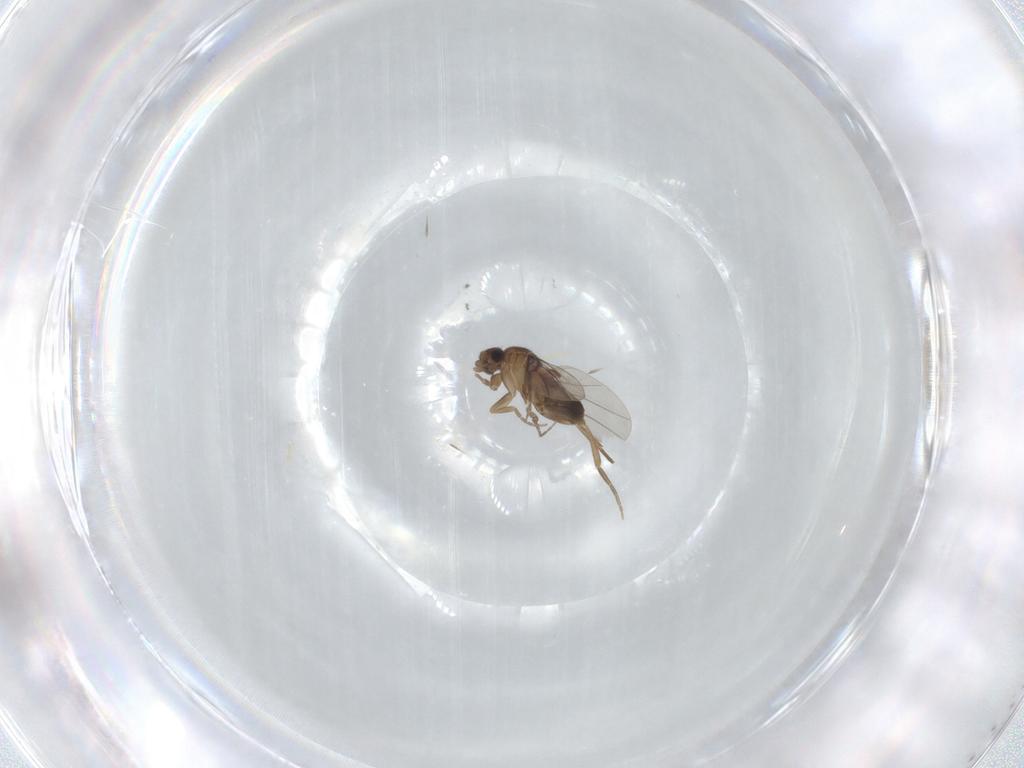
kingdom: Animalia
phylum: Arthropoda
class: Insecta
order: Diptera
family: Phoridae
